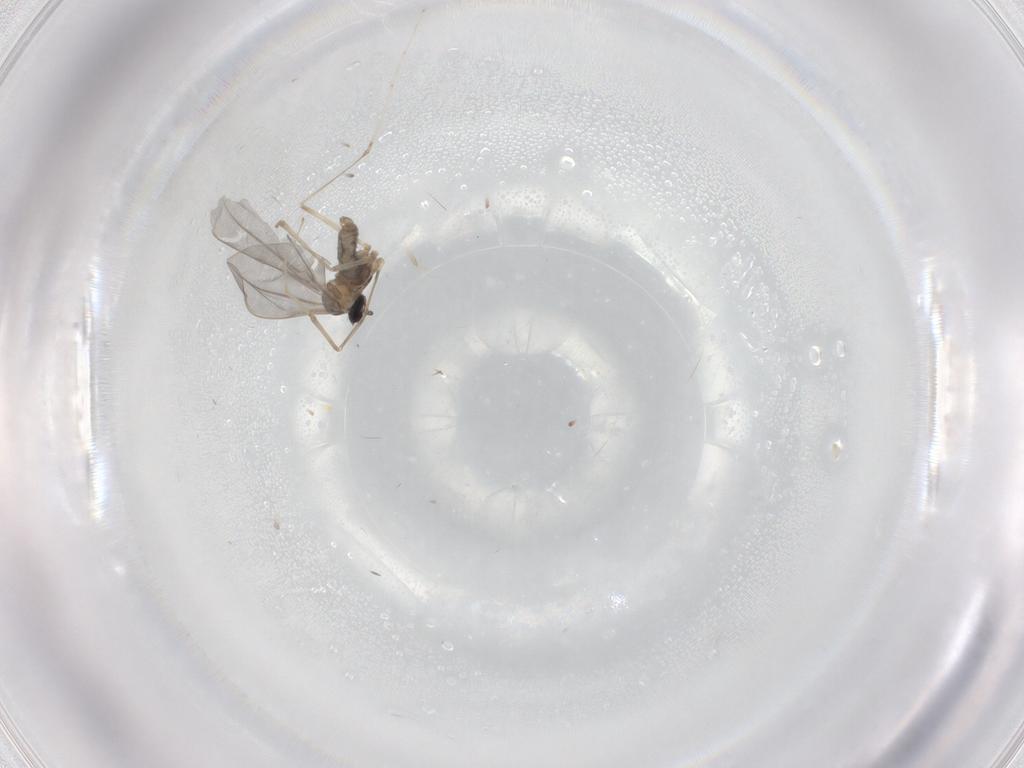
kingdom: Animalia
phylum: Arthropoda
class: Insecta
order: Diptera
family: Cecidomyiidae
